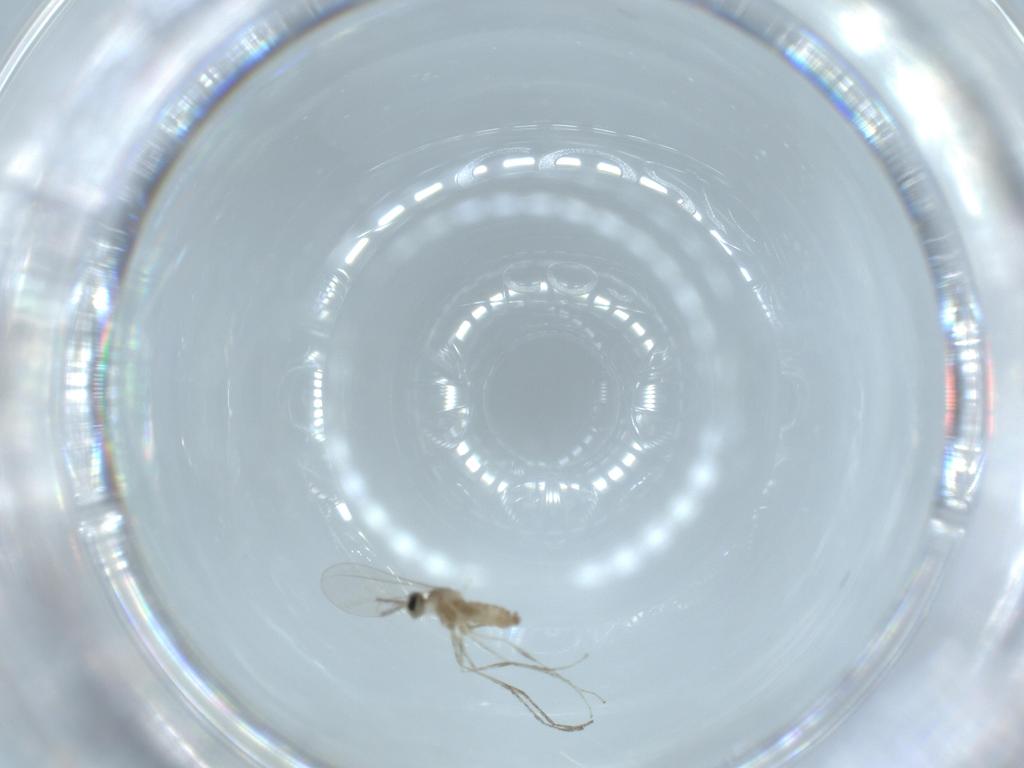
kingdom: Animalia
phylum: Arthropoda
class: Insecta
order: Diptera
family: Cecidomyiidae
